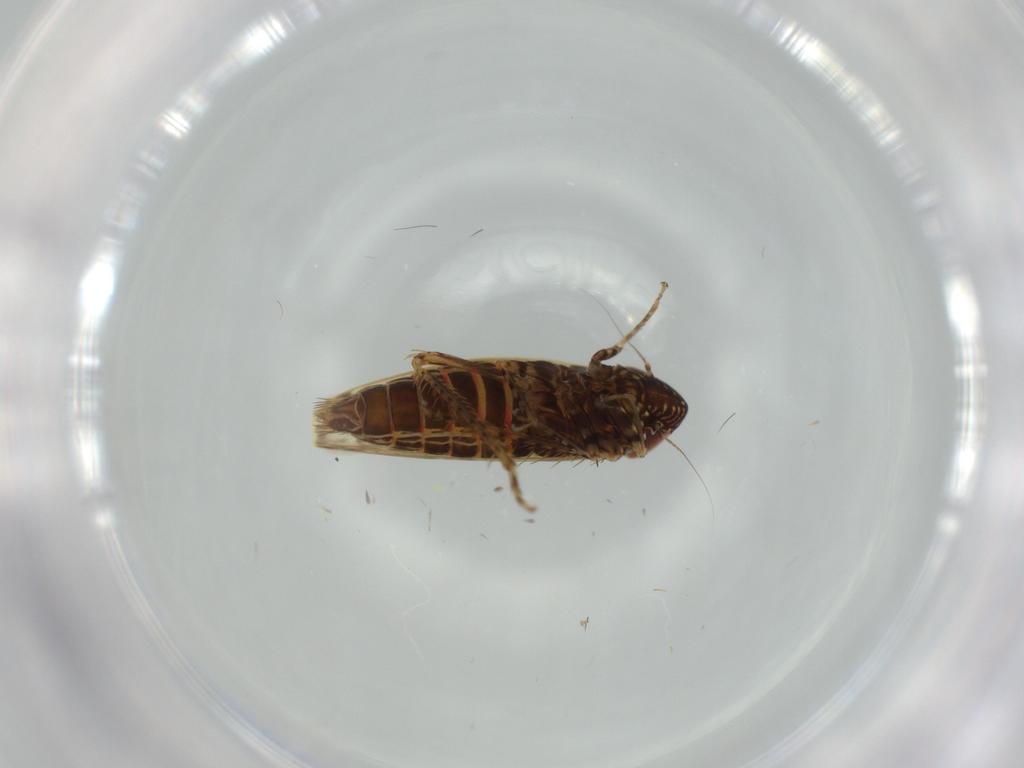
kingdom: Animalia
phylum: Arthropoda
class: Insecta
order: Hemiptera
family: Cicadellidae
